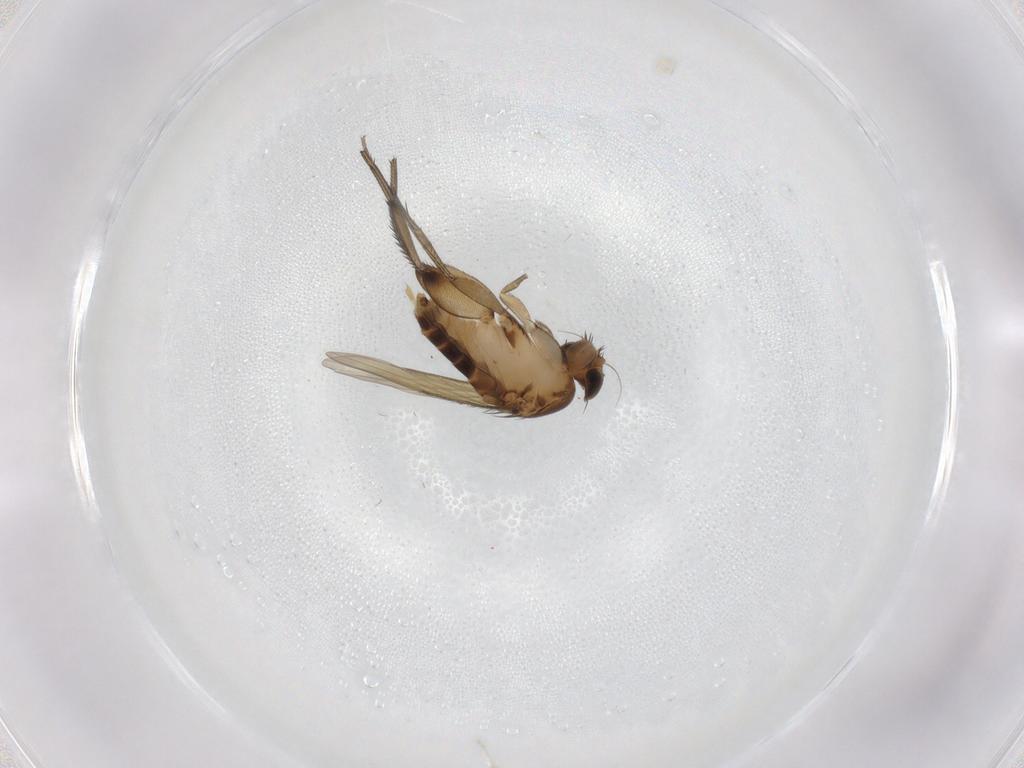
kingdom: Animalia
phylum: Arthropoda
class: Insecta
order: Diptera
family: Phoridae
